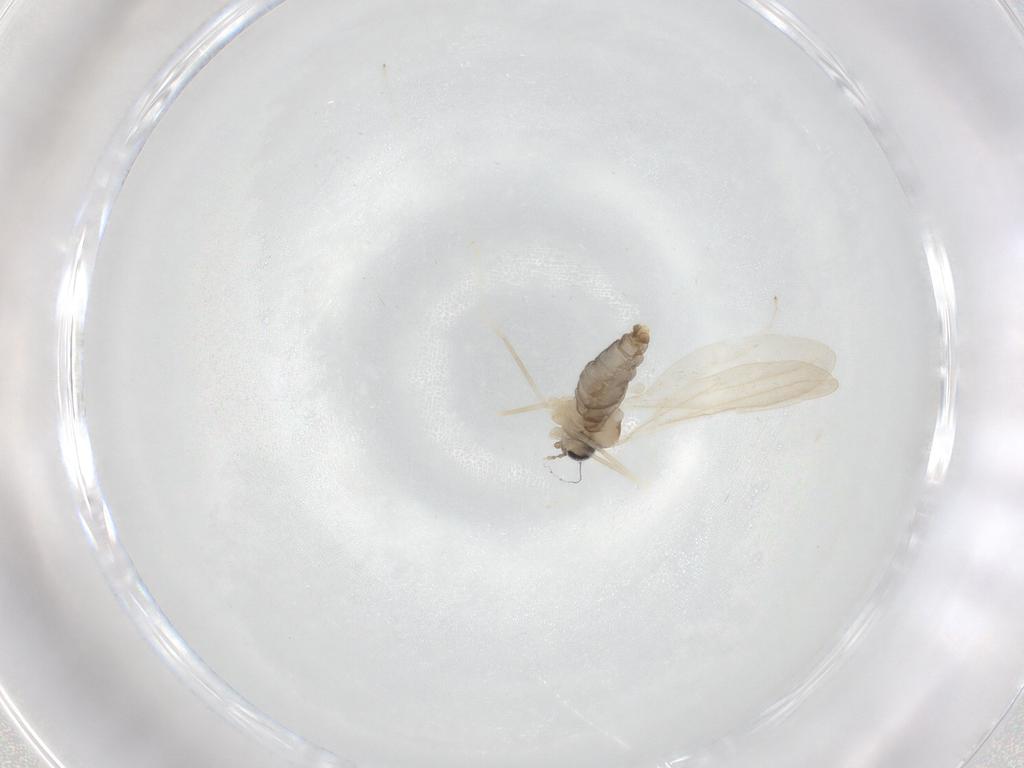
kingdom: Animalia
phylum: Arthropoda
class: Insecta
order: Diptera
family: Cecidomyiidae
